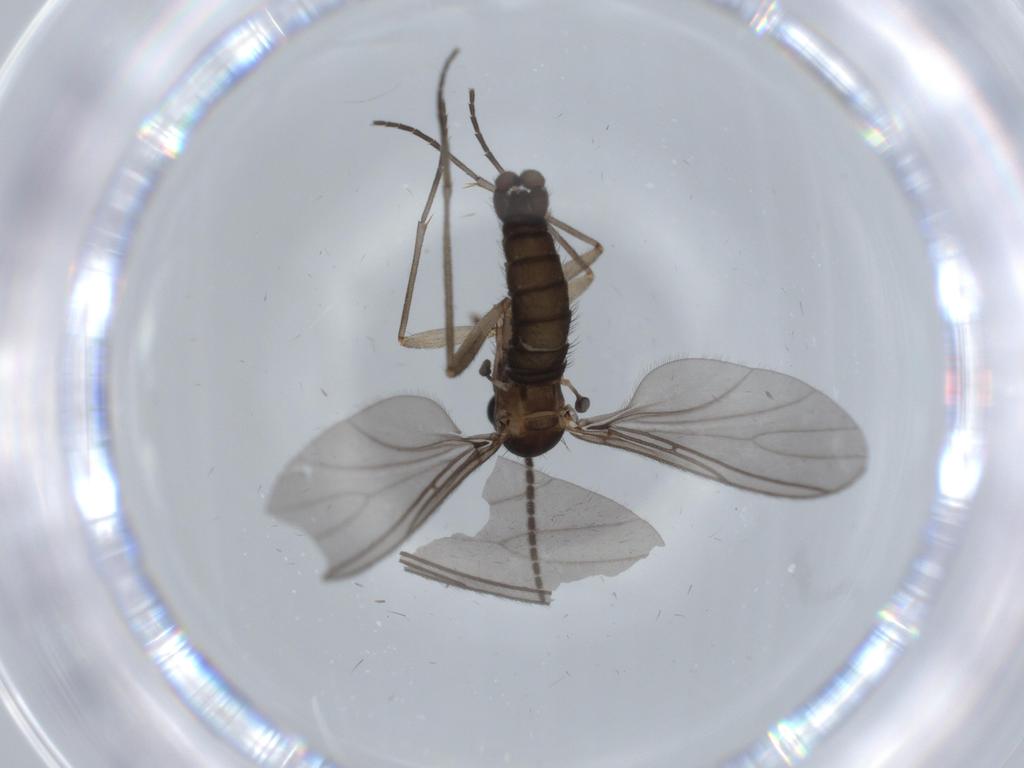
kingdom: Animalia
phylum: Arthropoda
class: Insecta
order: Diptera
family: Sciaridae
